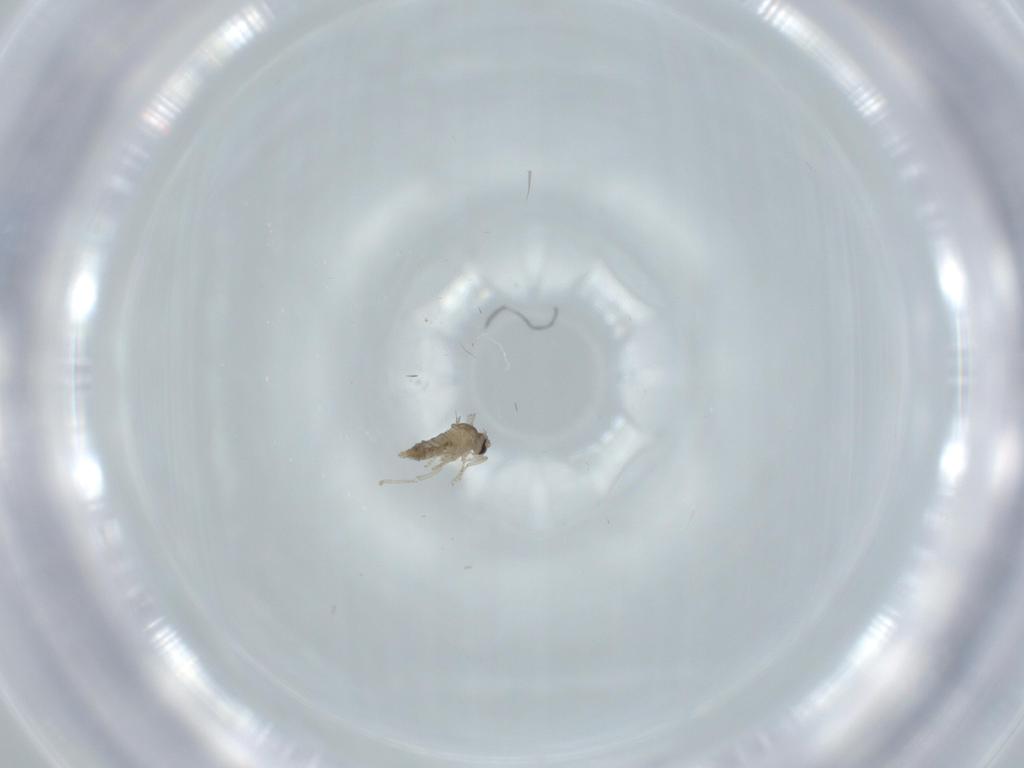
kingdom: Animalia
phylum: Arthropoda
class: Insecta
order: Diptera
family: Cecidomyiidae
